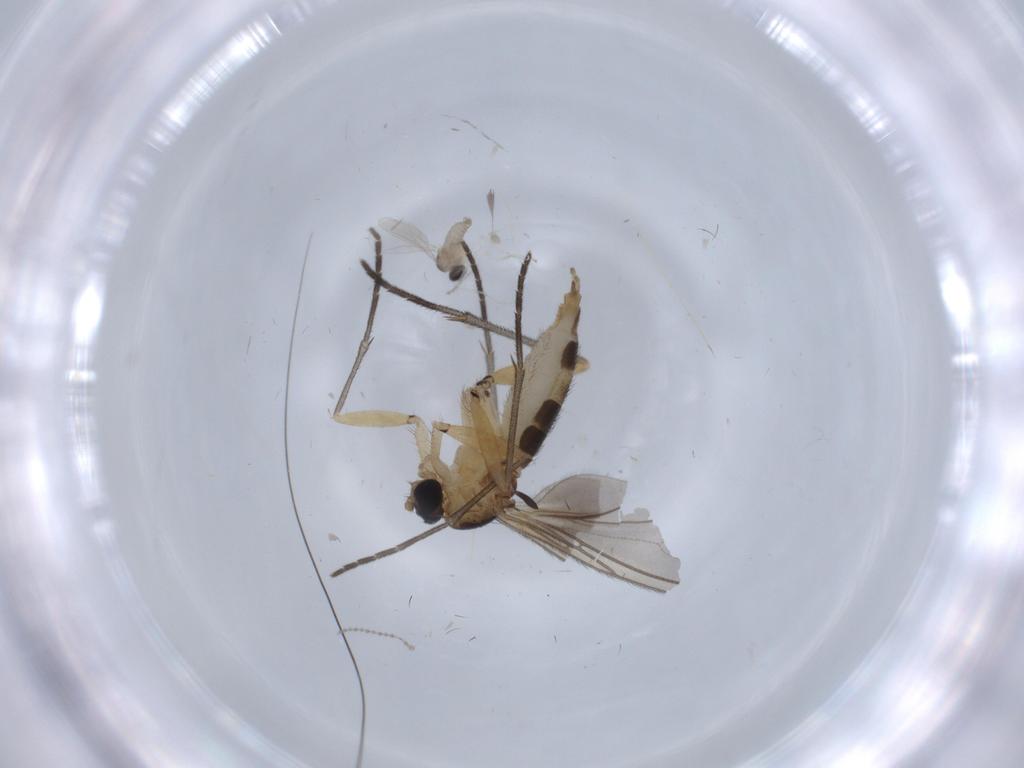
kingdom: Animalia
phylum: Arthropoda
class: Insecta
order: Diptera
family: Cecidomyiidae
